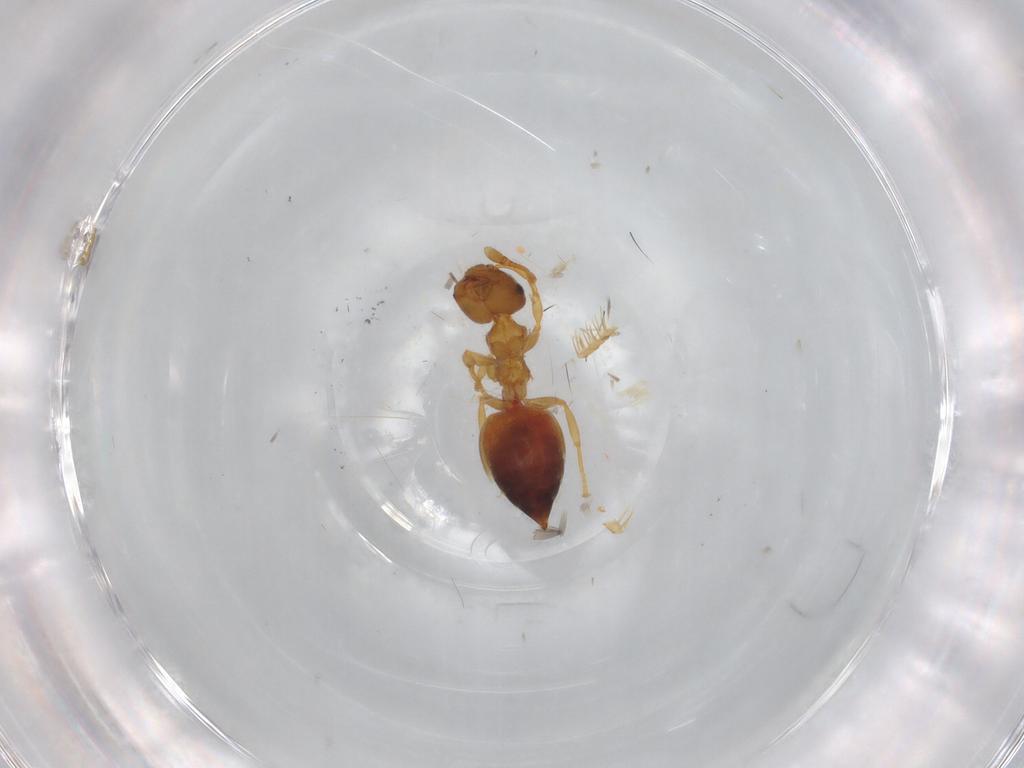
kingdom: Animalia
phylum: Arthropoda
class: Insecta
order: Hymenoptera
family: Formicidae
